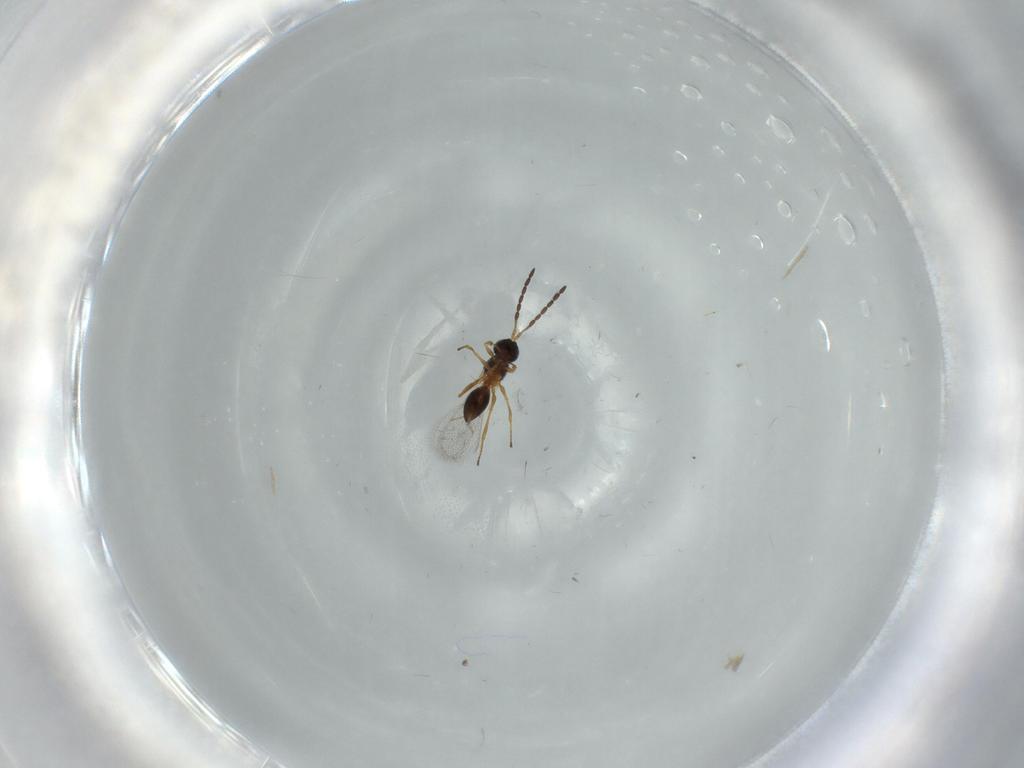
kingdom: Animalia
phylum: Arthropoda
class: Insecta
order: Hymenoptera
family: Figitidae
